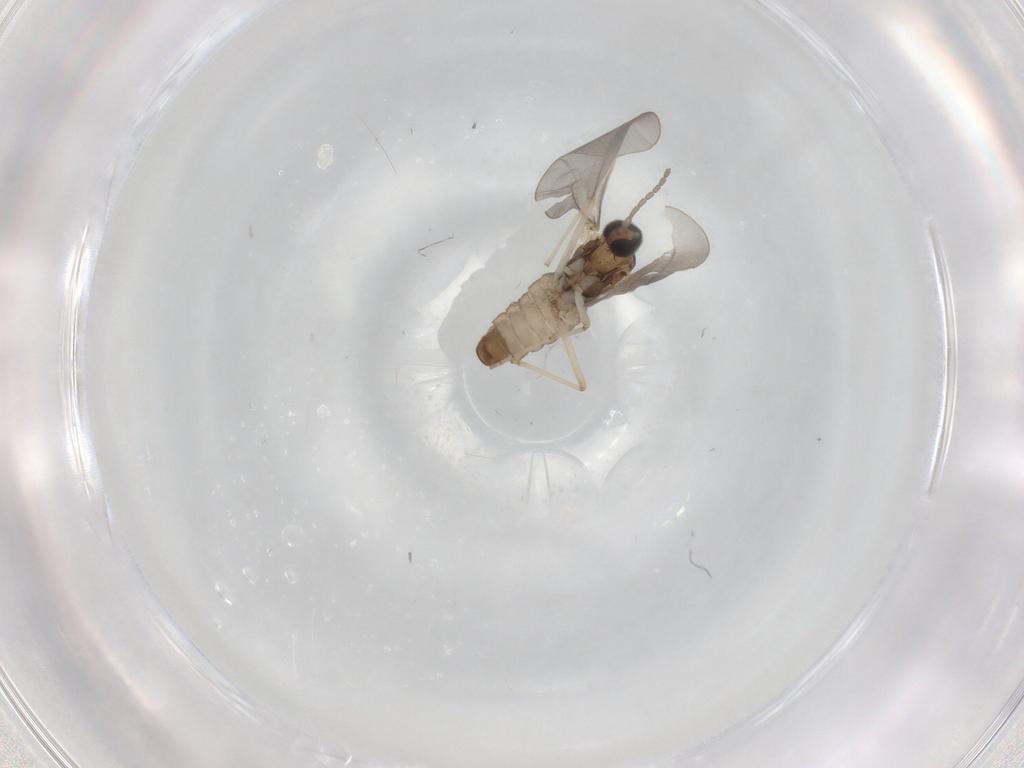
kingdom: Animalia
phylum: Arthropoda
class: Insecta
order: Diptera
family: Cecidomyiidae
